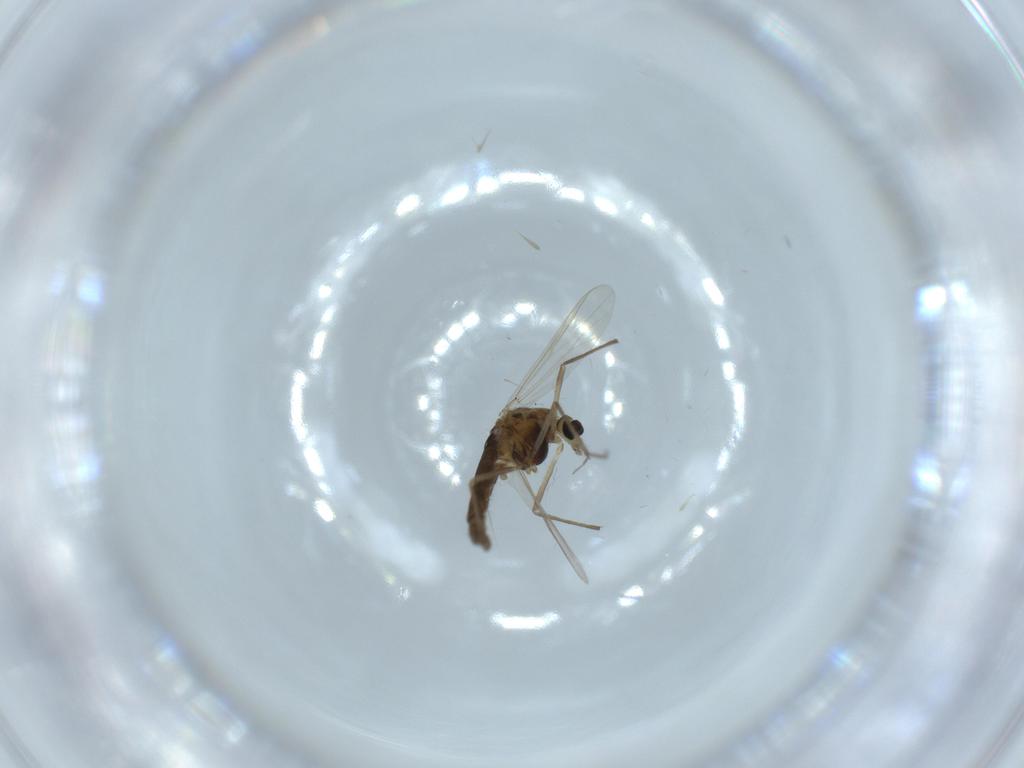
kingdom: Animalia
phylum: Arthropoda
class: Insecta
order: Diptera
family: Chironomidae
